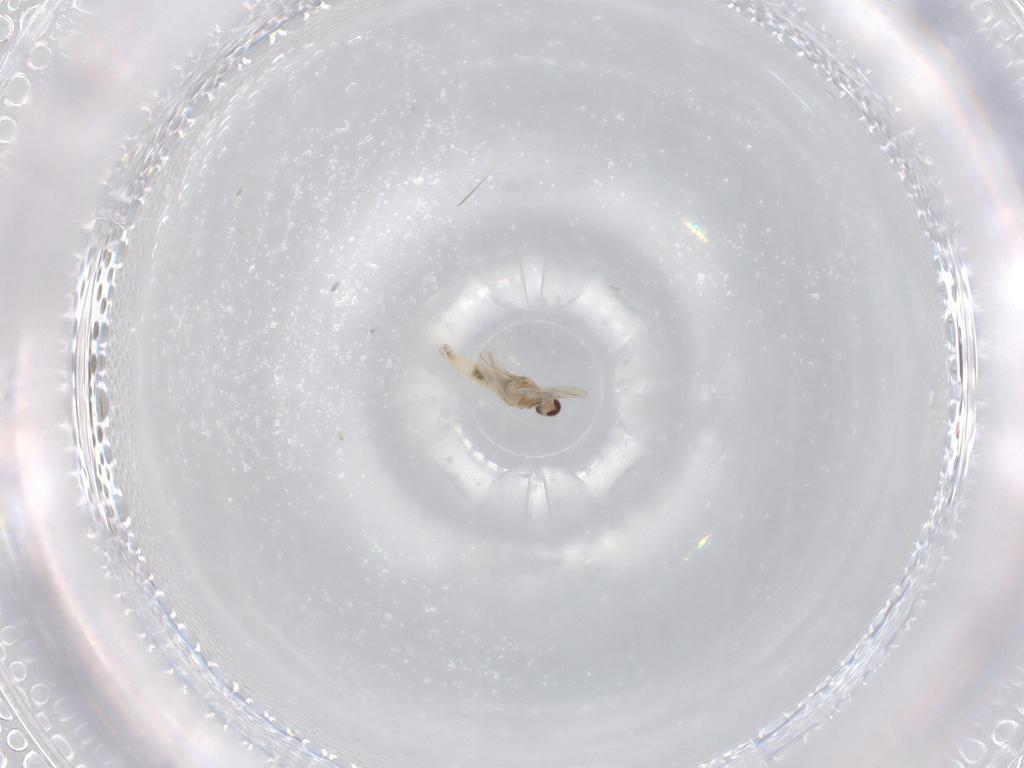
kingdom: Animalia
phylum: Arthropoda
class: Insecta
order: Diptera
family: Cecidomyiidae
